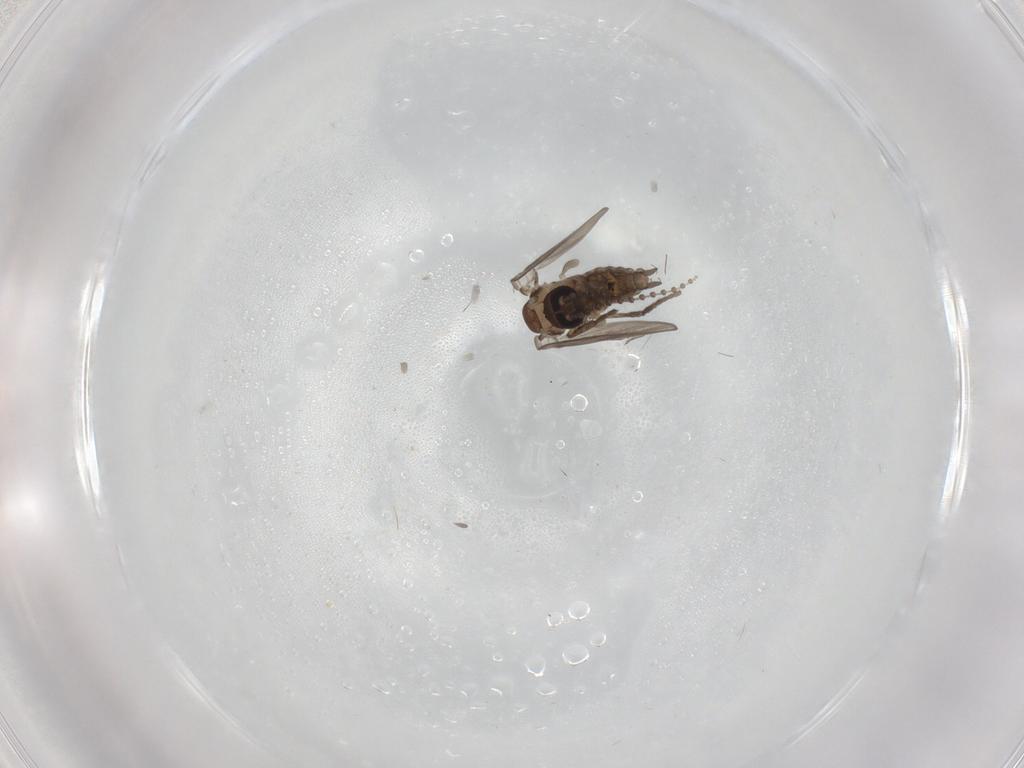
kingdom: Animalia
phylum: Arthropoda
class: Insecta
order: Diptera
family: Psychodidae
